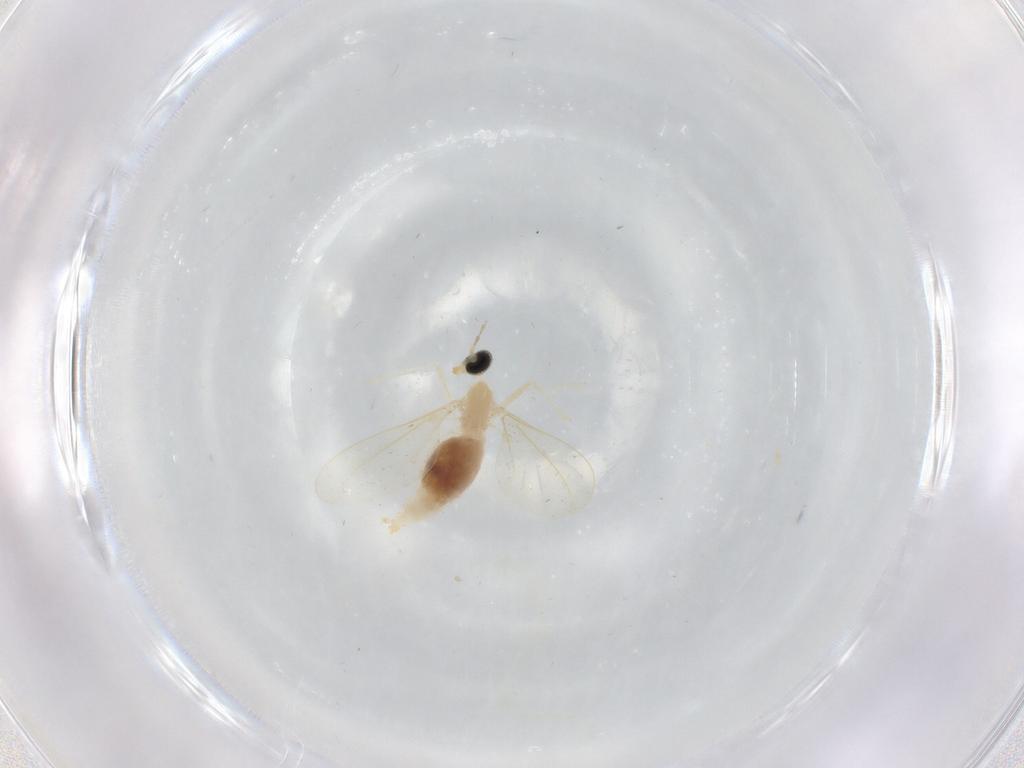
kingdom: Animalia
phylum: Arthropoda
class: Insecta
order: Diptera
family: Cecidomyiidae
